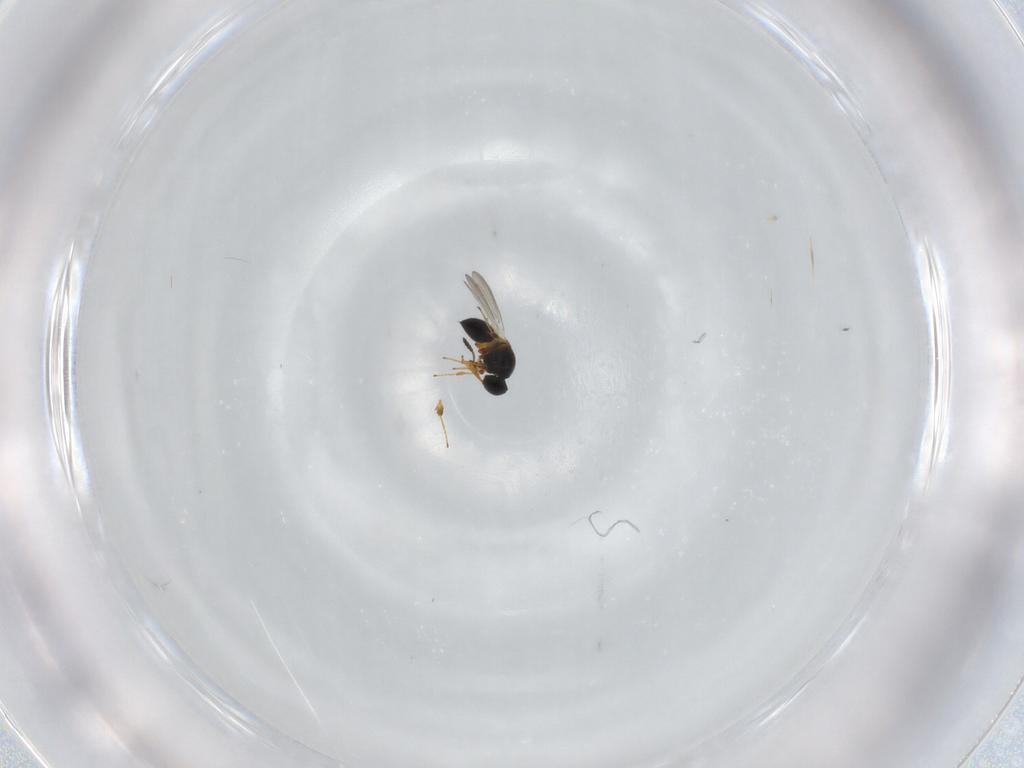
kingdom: Animalia
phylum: Arthropoda
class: Insecta
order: Hymenoptera
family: Platygastridae
